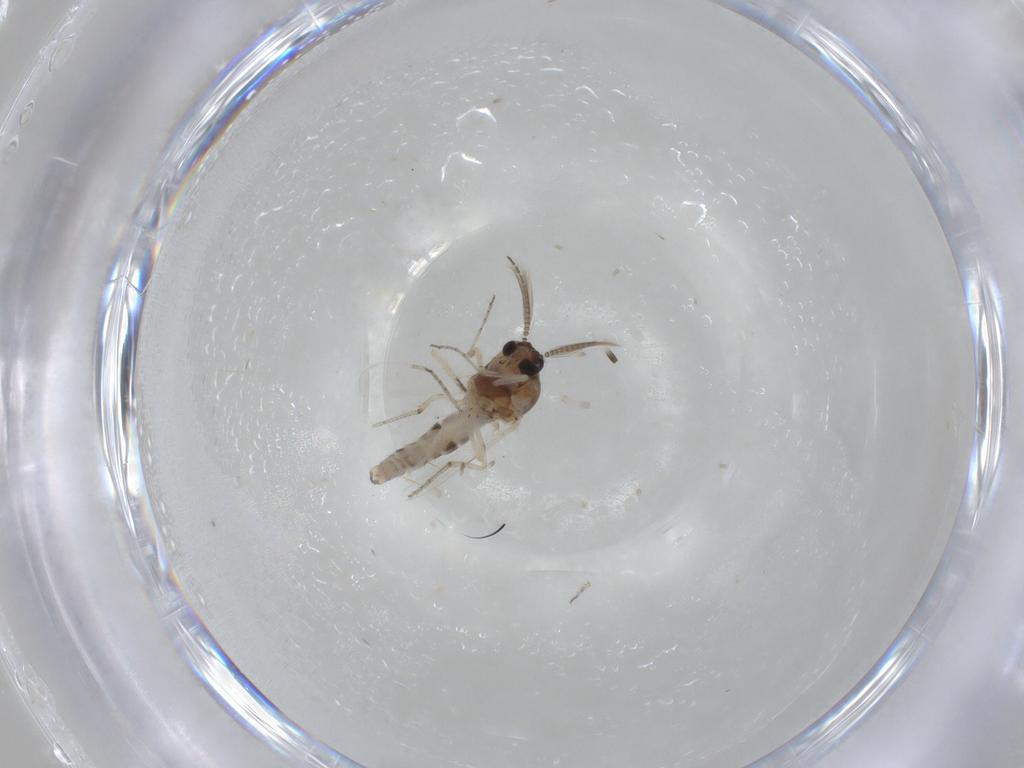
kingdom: Animalia
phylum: Arthropoda
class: Insecta
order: Diptera
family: Ceratopogonidae
